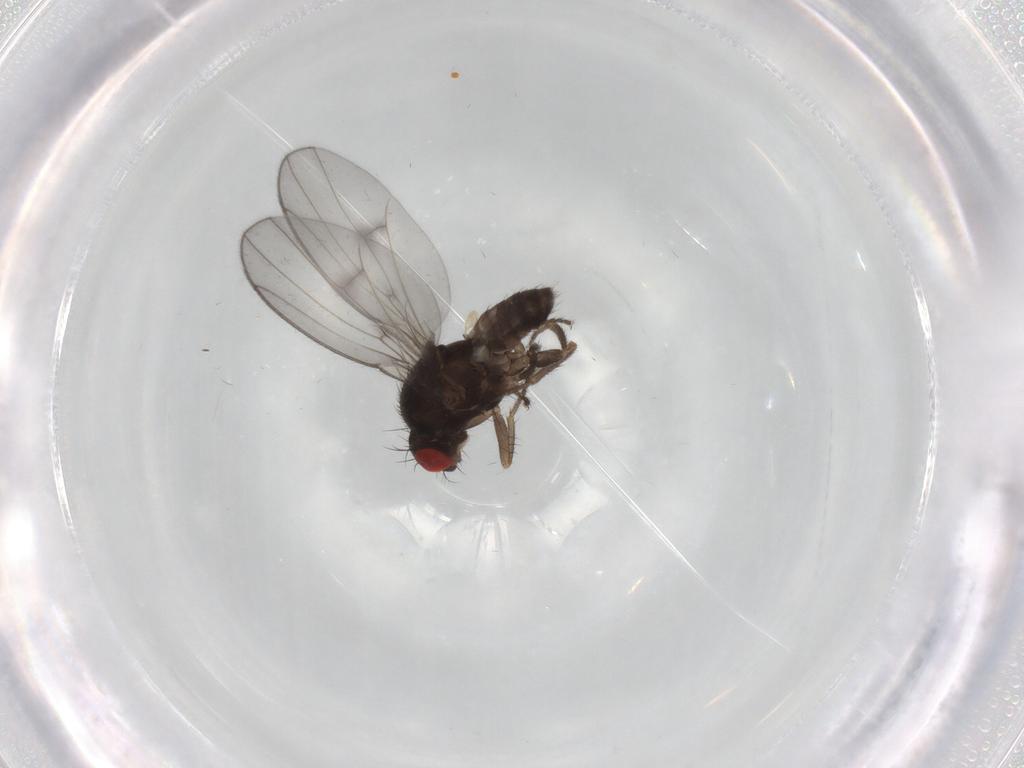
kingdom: Animalia
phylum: Arthropoda
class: Insecta
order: Diptera
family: Drosophilidae
